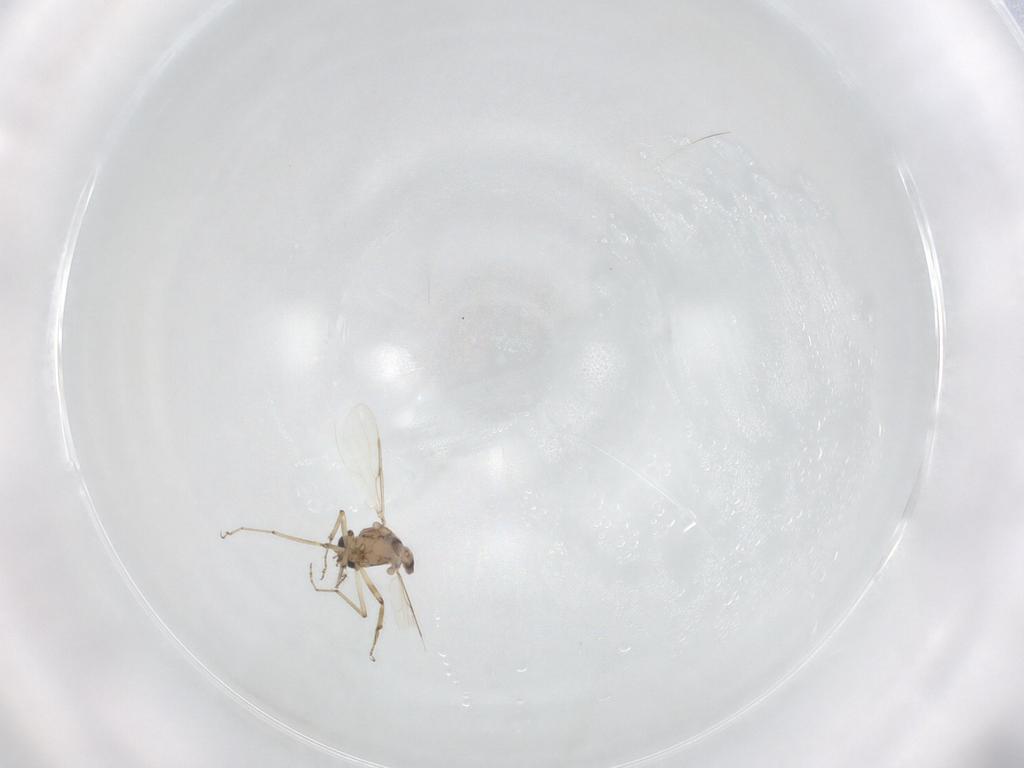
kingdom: Animalia
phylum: Arthropoda
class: Insecta
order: Diptera
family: Ceratopogonidae
